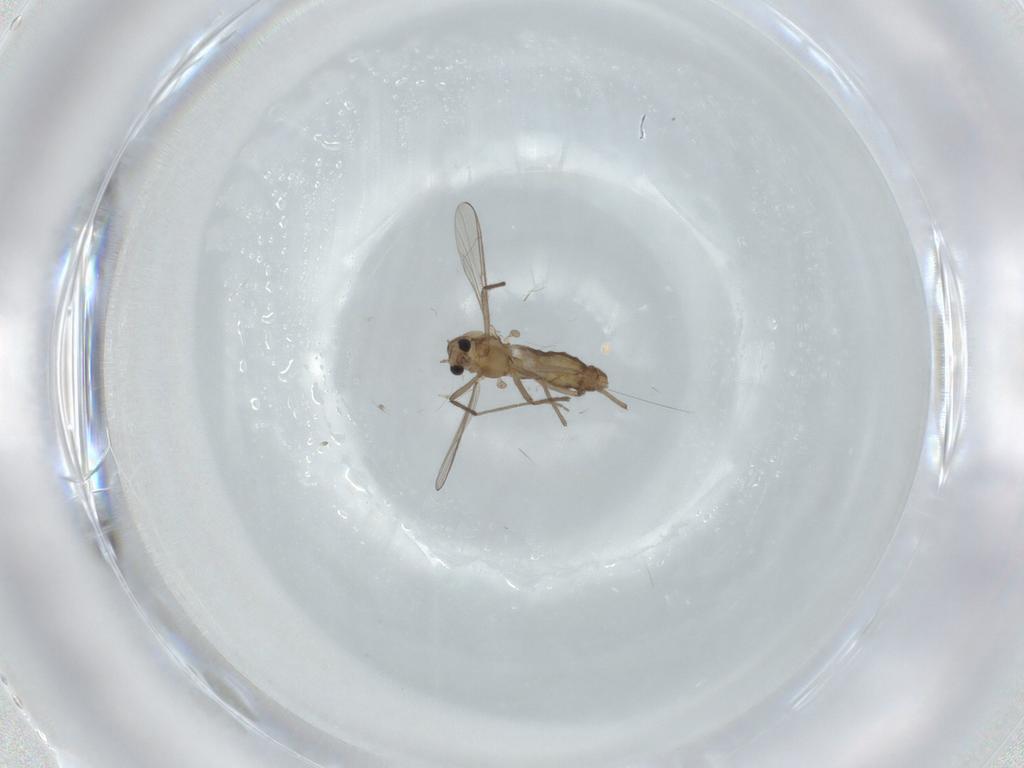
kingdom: Animalia
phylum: Arthropoda
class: Insecta
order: Diptera
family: Chironomidae
